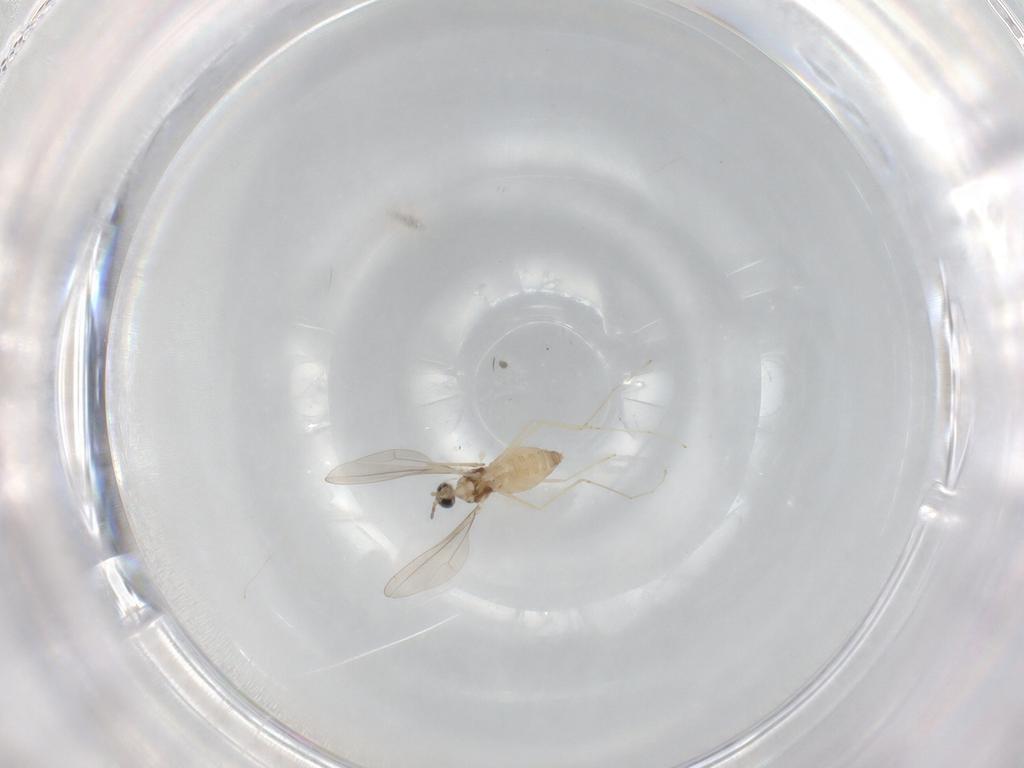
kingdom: Animalia
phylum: Arthropoda
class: Insecta
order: Diptera
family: Cecidomyiidae
